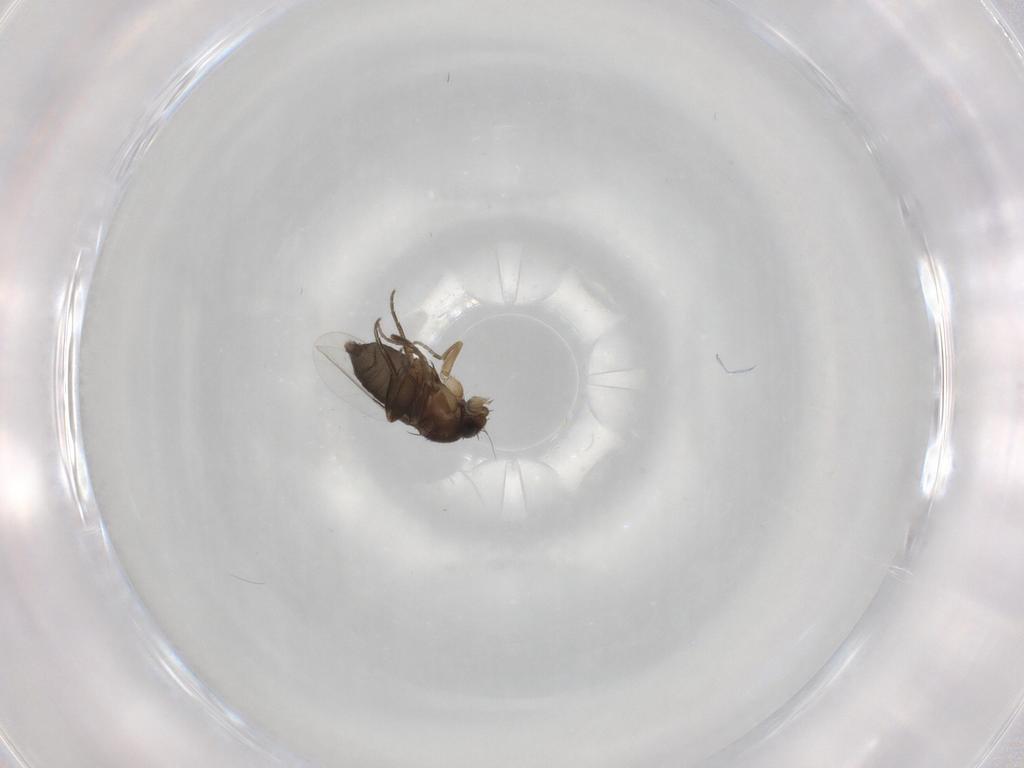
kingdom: Animalia
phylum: Arthropoda
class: Insecta
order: Diptera
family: Phoridae
